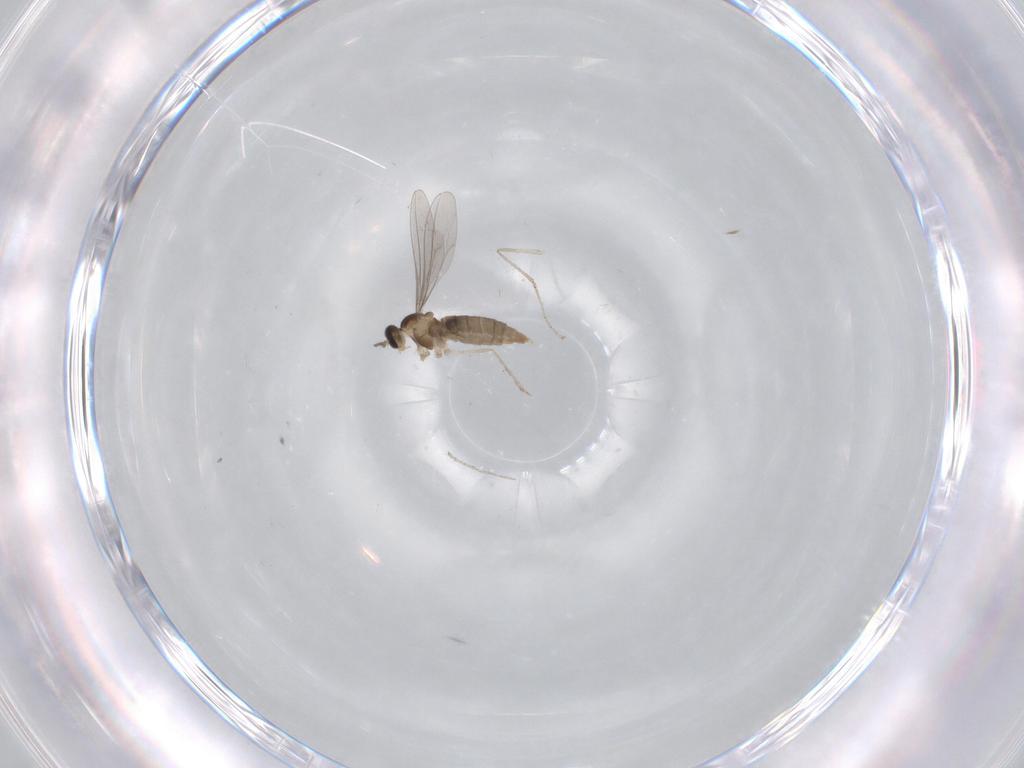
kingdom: Animalia
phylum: Arthropoda
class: Insecta
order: Diptera
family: Cecidomyiidae
